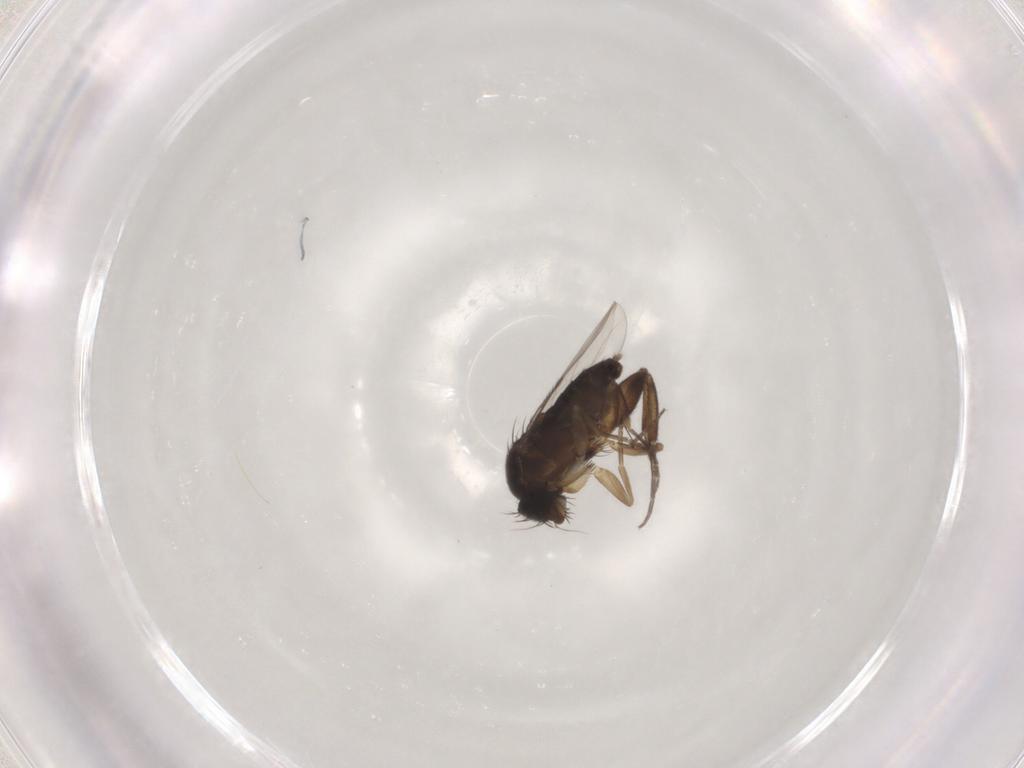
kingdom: Animalia
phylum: Arthropoda
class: Insecta
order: Diptera
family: Phoridae
